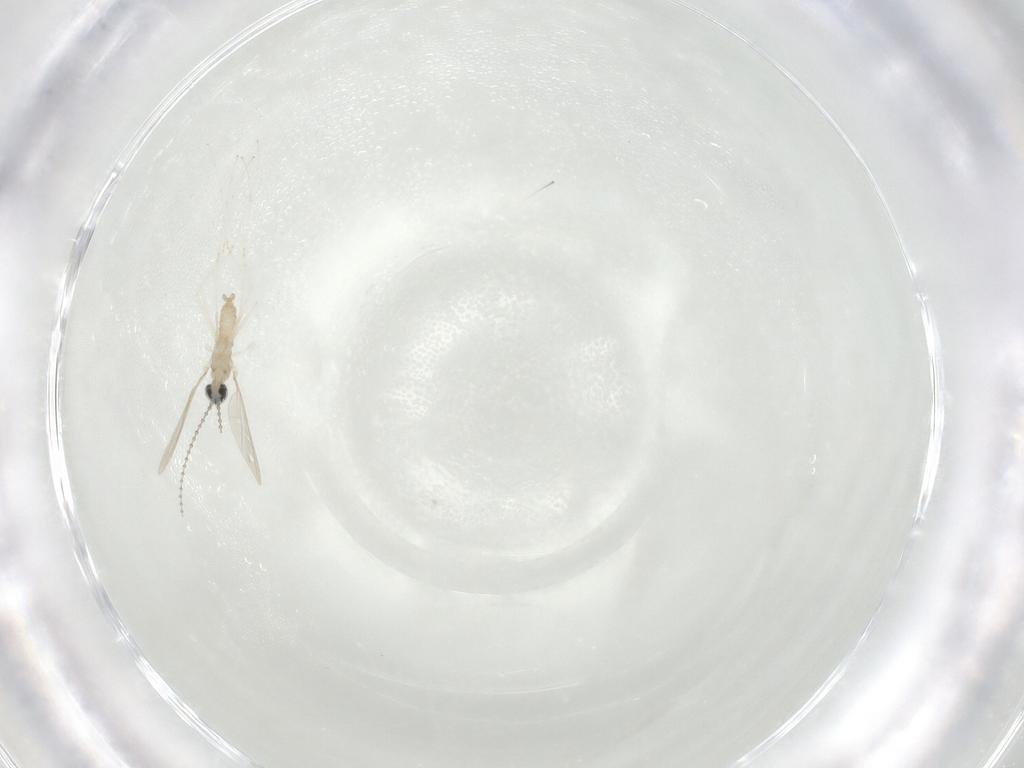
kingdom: Animalia
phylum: Arthropoda
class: Insecta
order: Diptera
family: Cecidomyiidae
